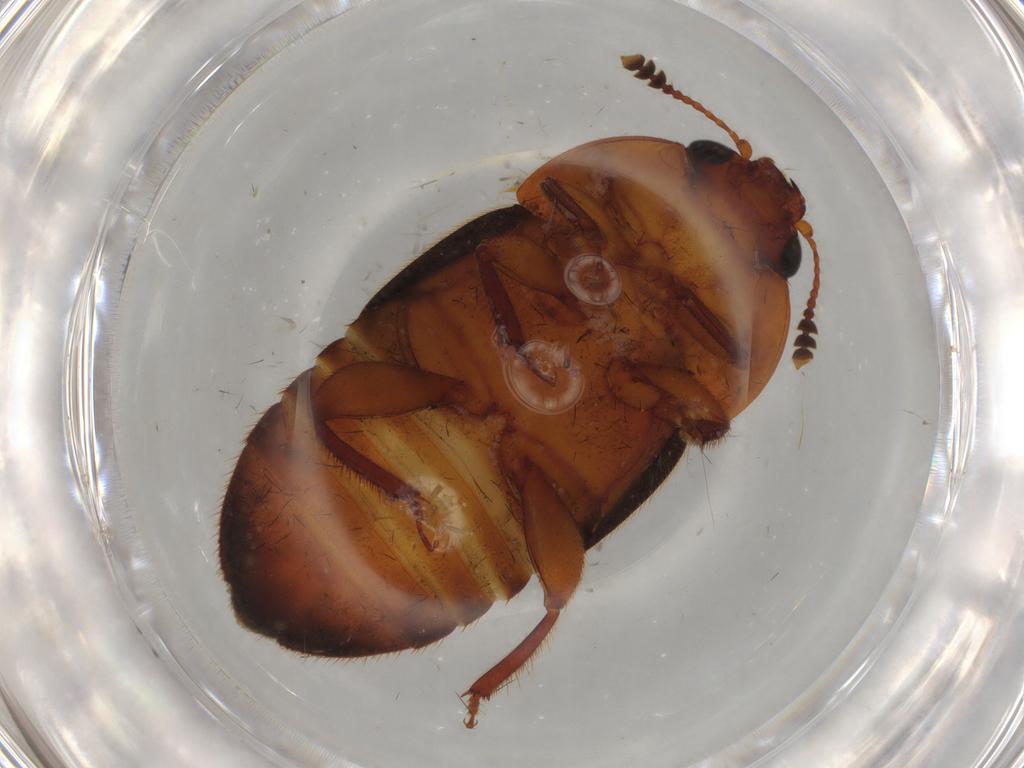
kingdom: Animalia
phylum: Arthropoda
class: Insecta
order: Coleoptera
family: Nitidulidae
